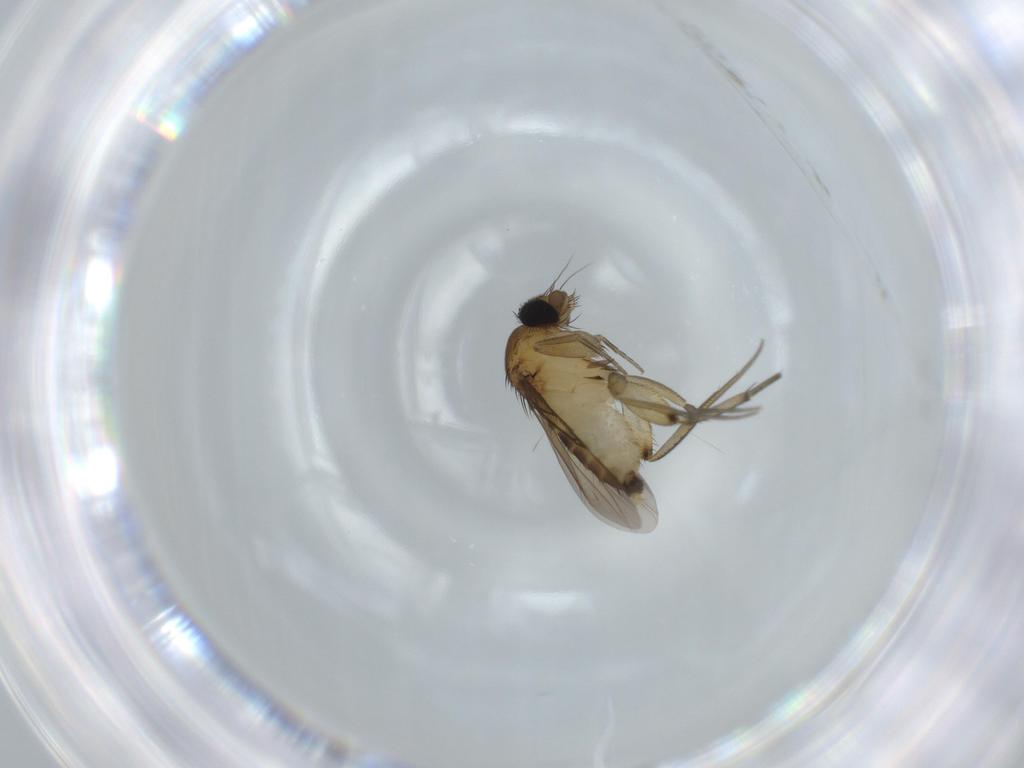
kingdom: Animalia
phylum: Arthropoda
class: Insecta
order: Diptera
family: Phoridae
